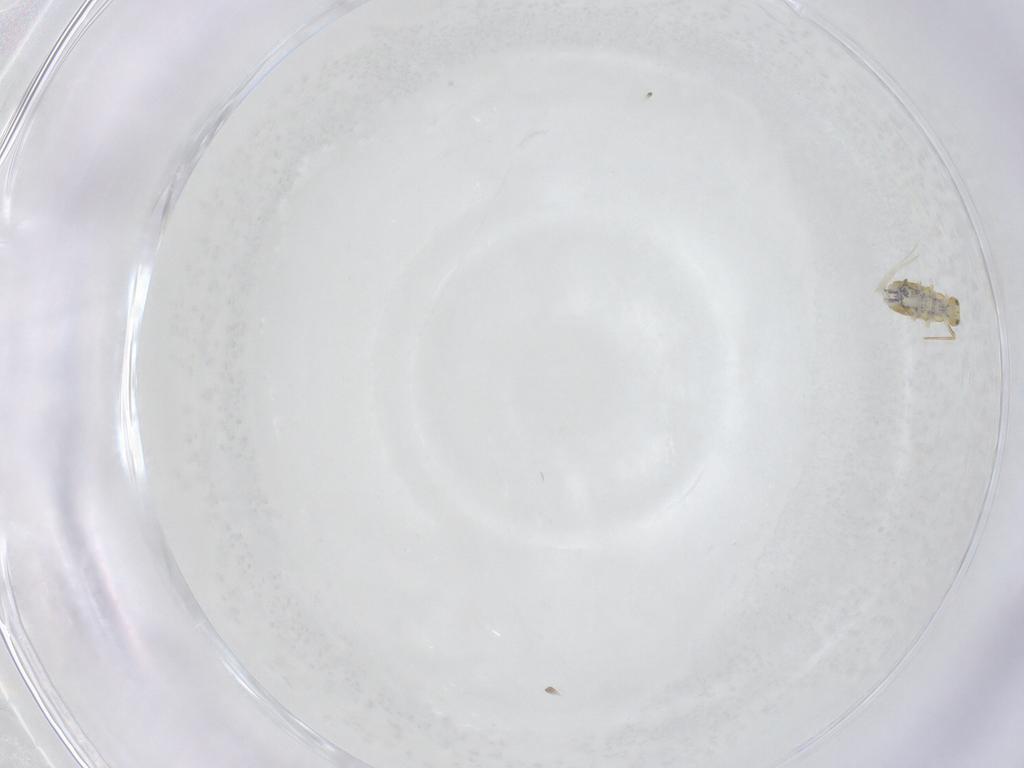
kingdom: Animalia
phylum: Arthropoda
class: Collembola
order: Entomobryomorpha
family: Entomobryidae
